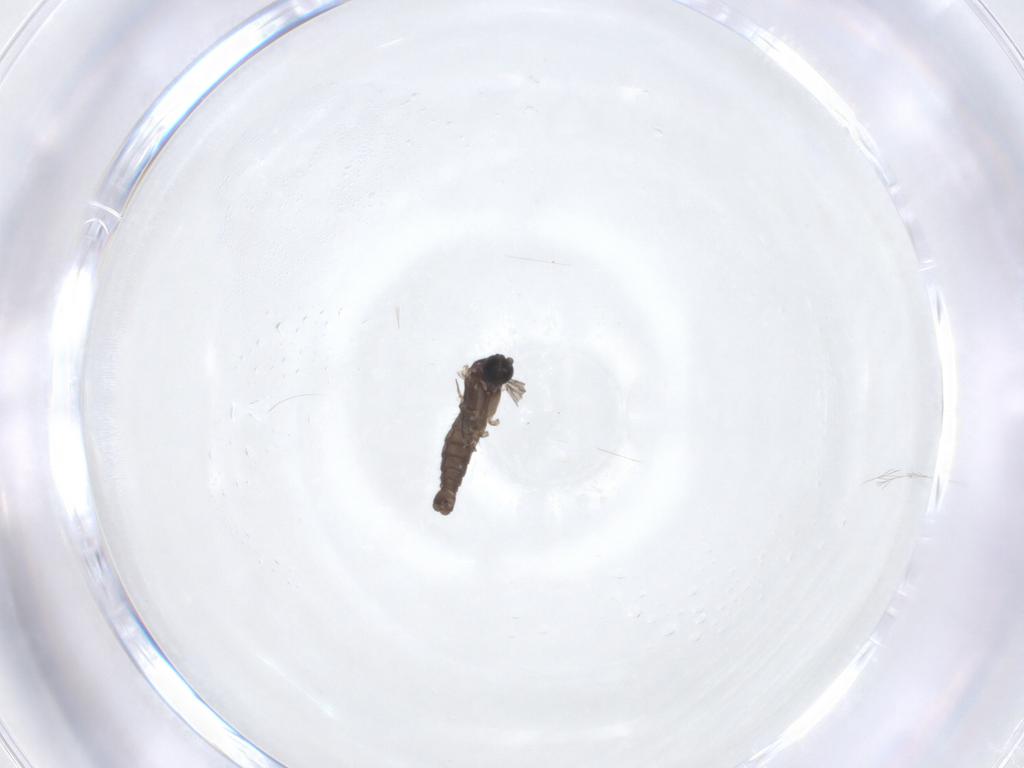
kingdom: Animalia
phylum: Arthropoda
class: Insecta
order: Diptera
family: Sciaridae
